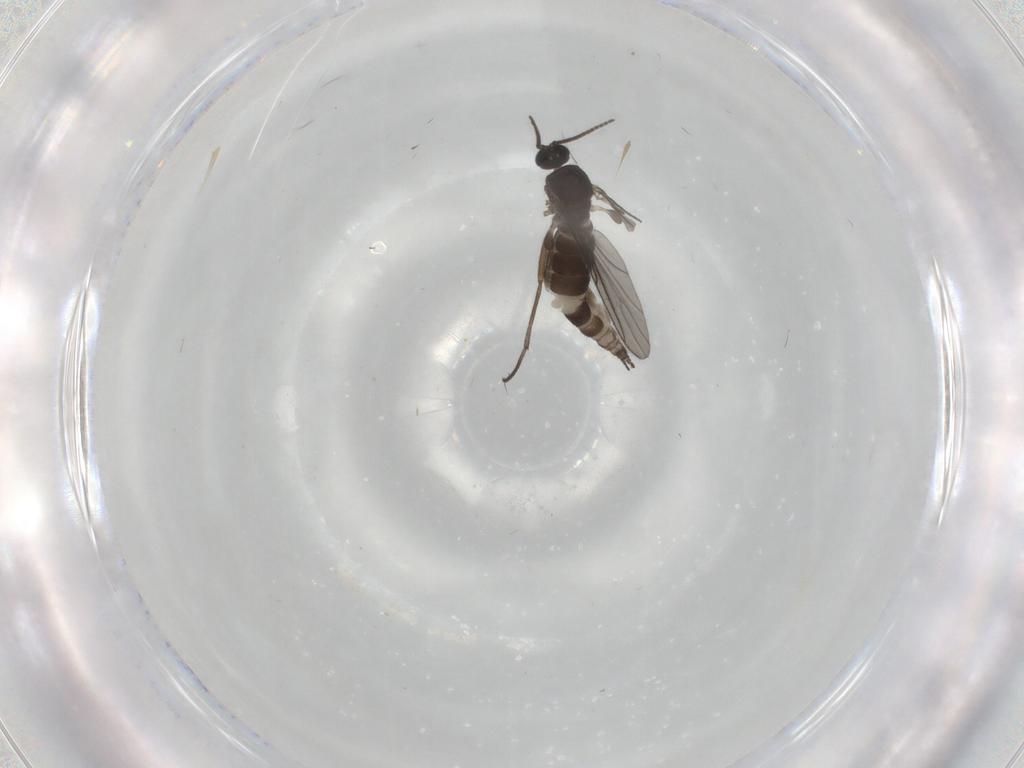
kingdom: Animalia
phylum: Arthropoda
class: Insecta
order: Diptera
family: Sciaridae
